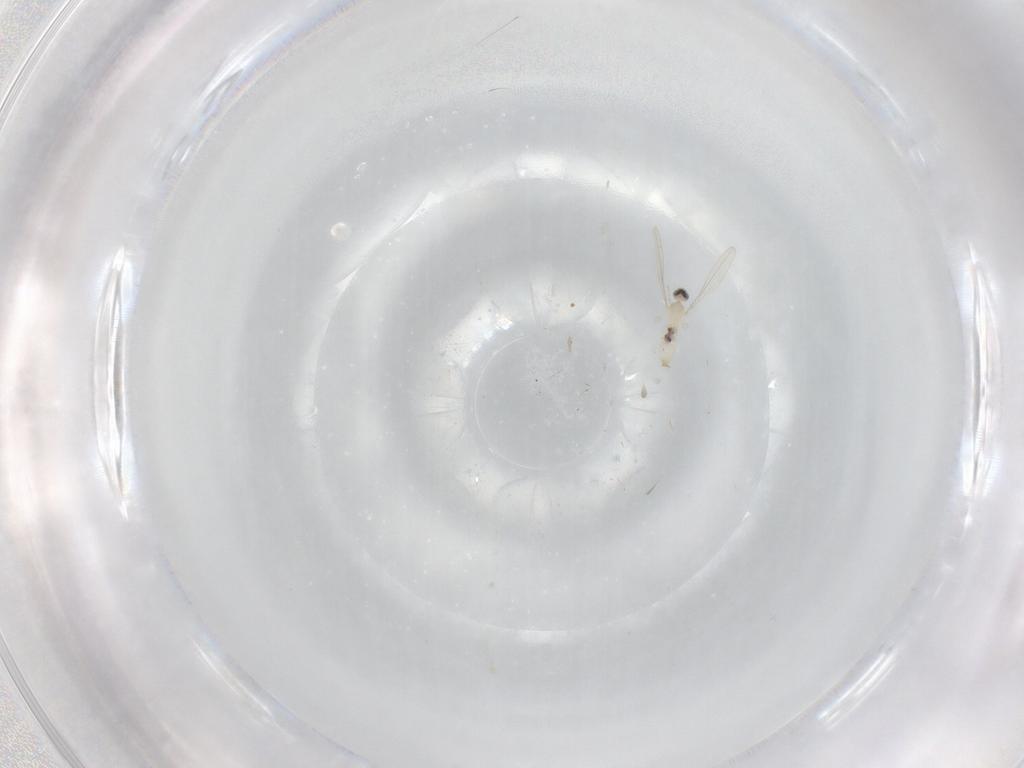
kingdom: Animalia
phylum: Arthropoda
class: Insecta
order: Diptera
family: Cecidomyiidae
